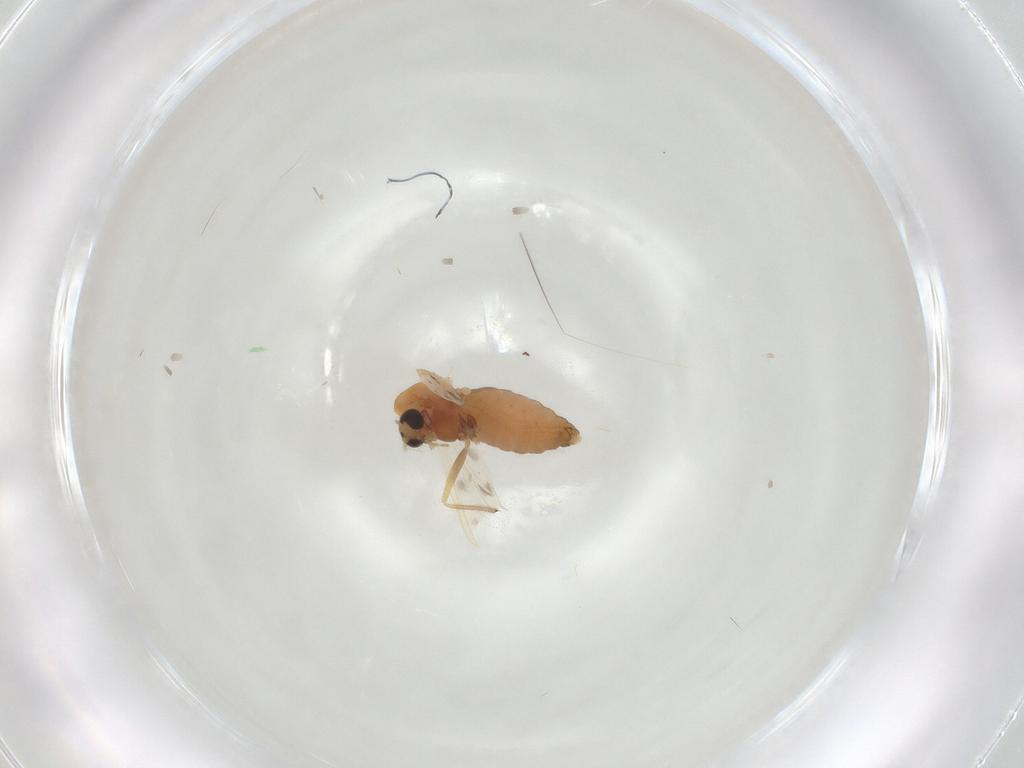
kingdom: Animalia
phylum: Arthropoda
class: Insecta
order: Diptera
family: Chironomidae
